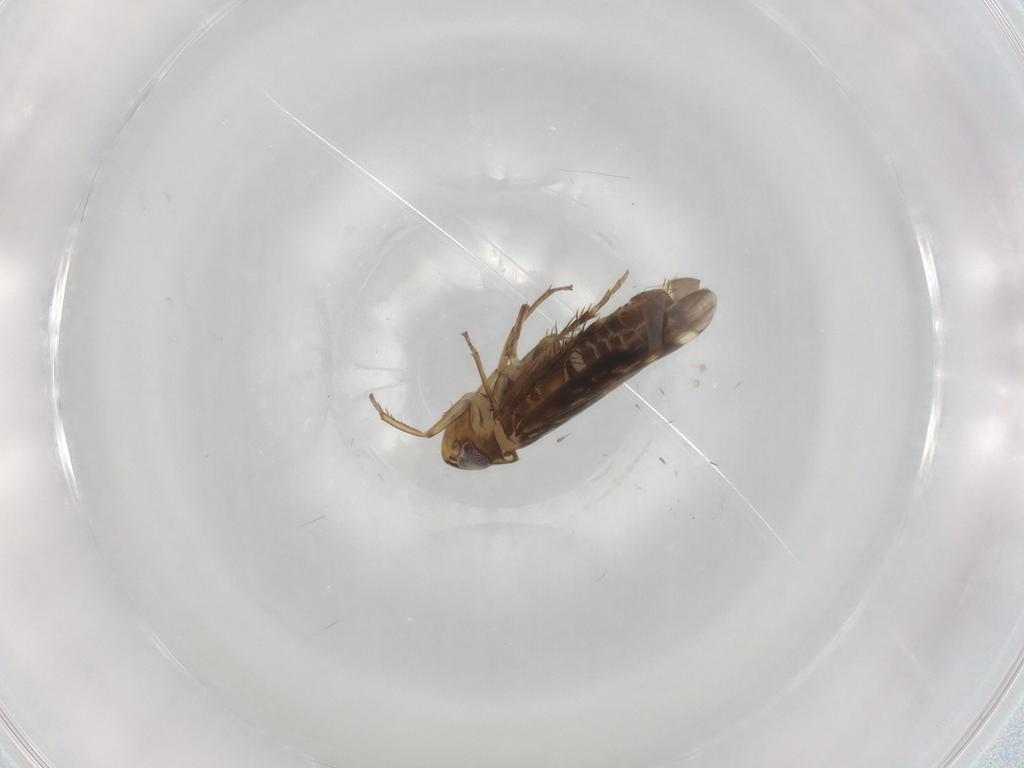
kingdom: Animalia
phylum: Arthropoda
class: Insecta
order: Hemiptera
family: Cicadellidae
